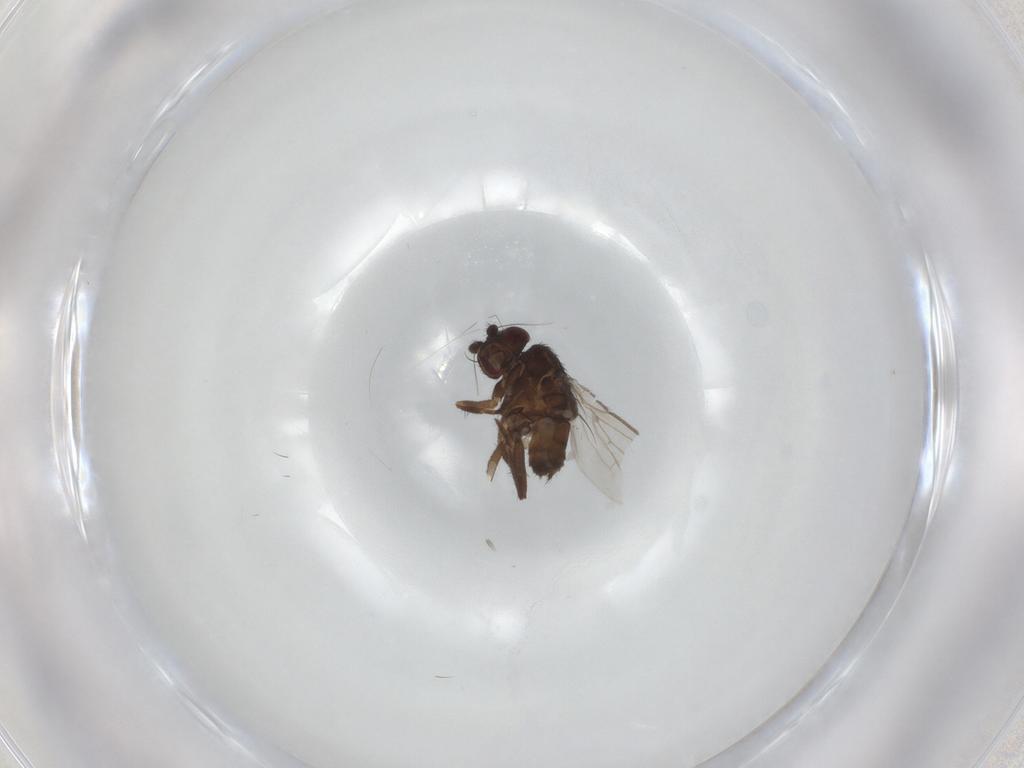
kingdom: Animalia
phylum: Arthropoda
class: Insecta
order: Diptera
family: Sphaeroceridae
